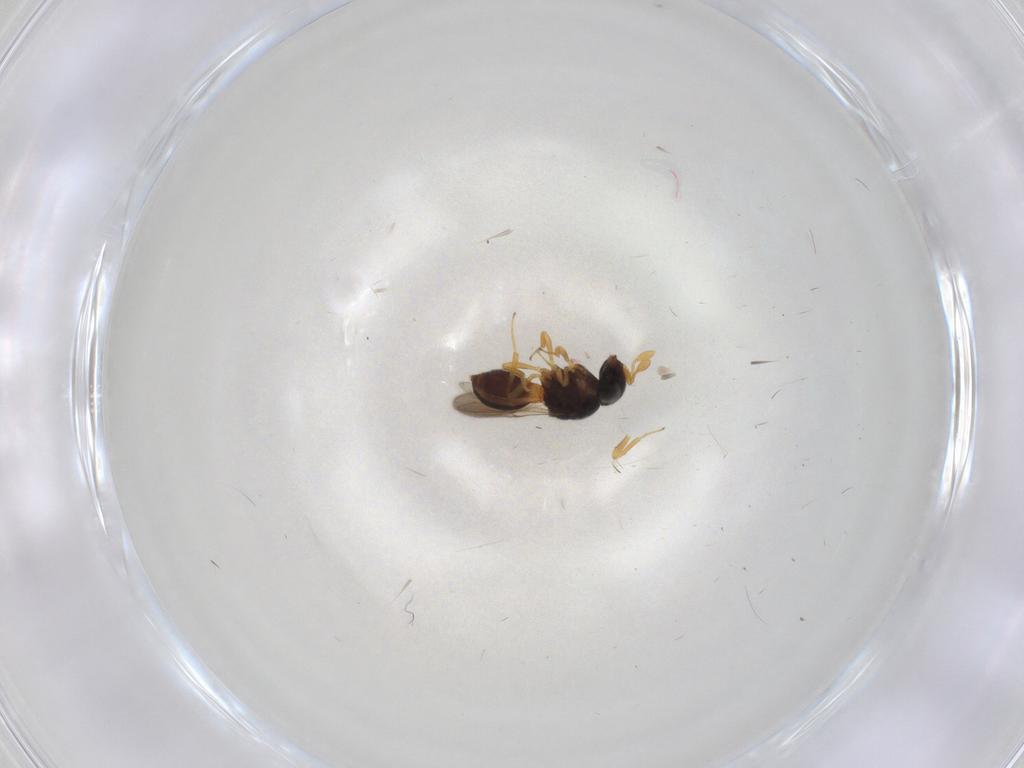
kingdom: Animalia
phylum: Arthropoda
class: Insecta
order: Hymenoptera
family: Scelionidae
